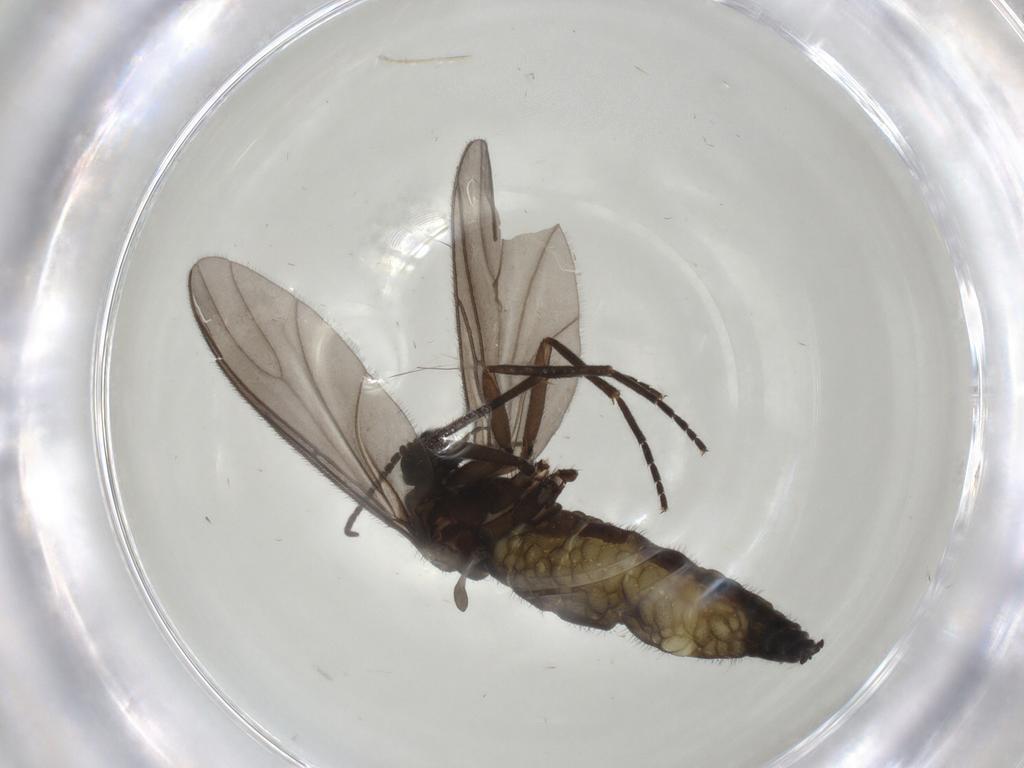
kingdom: Animalia
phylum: Arthropoda
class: Insecta
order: Diptera
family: Sciaridae
